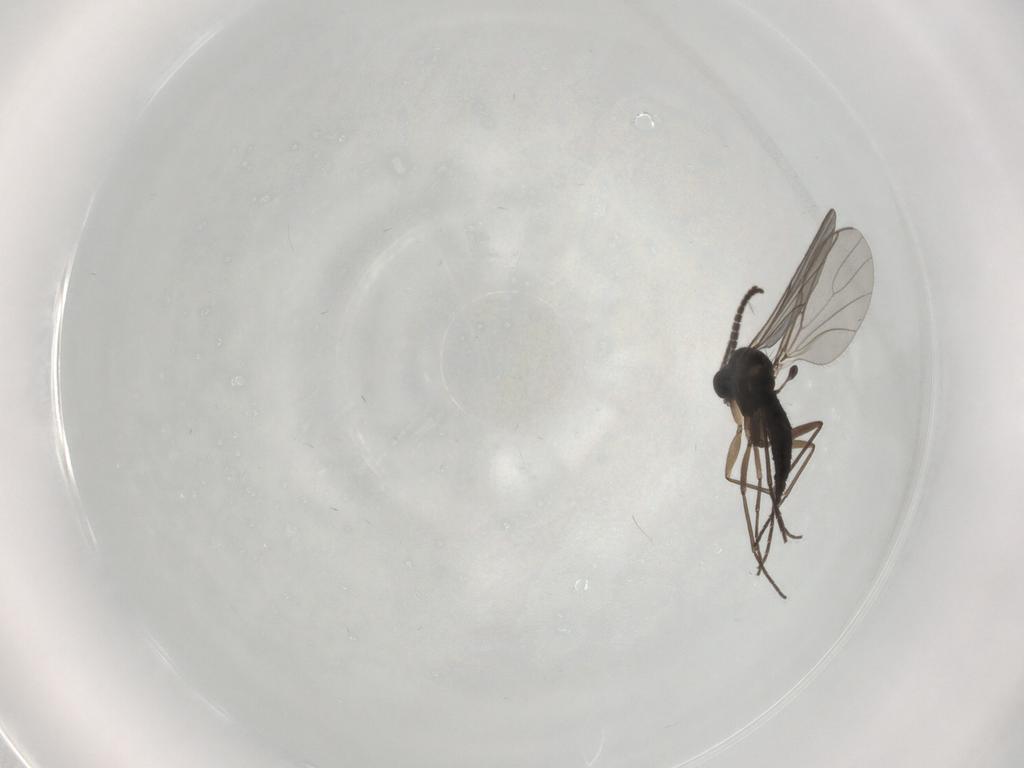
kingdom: Animalia
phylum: Arthropoda
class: Insecta
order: Diptera
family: Sciaridae
